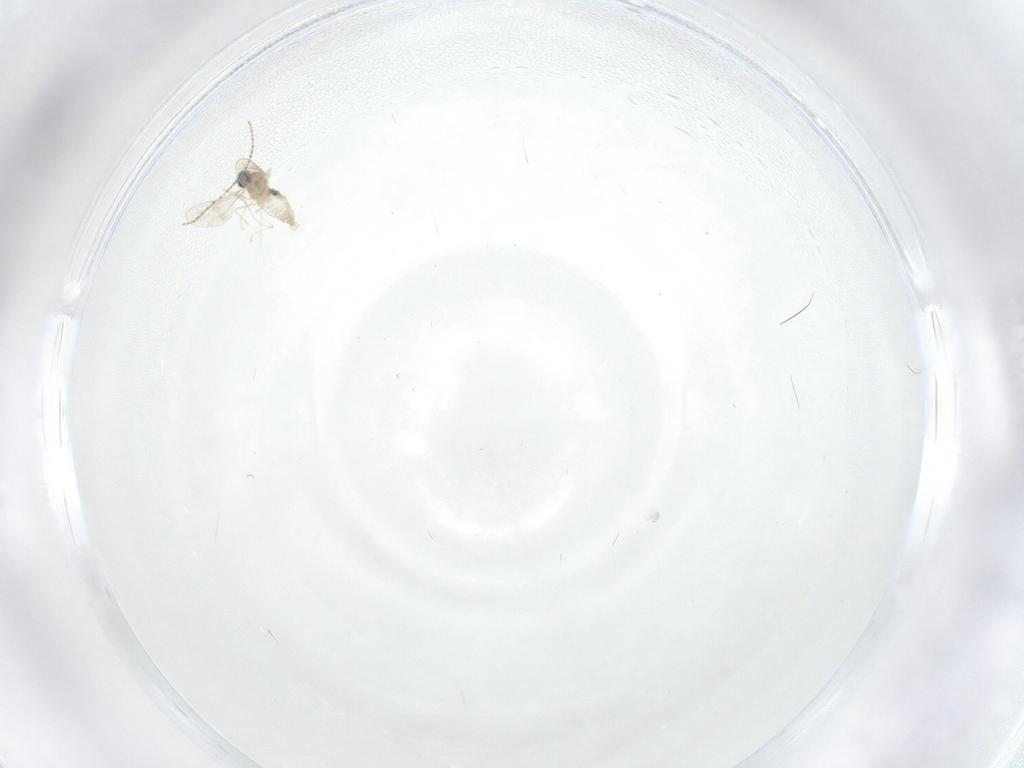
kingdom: Animalia
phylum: Arthropoda
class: Insecta
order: Diptera
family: Cecidomyiidae
